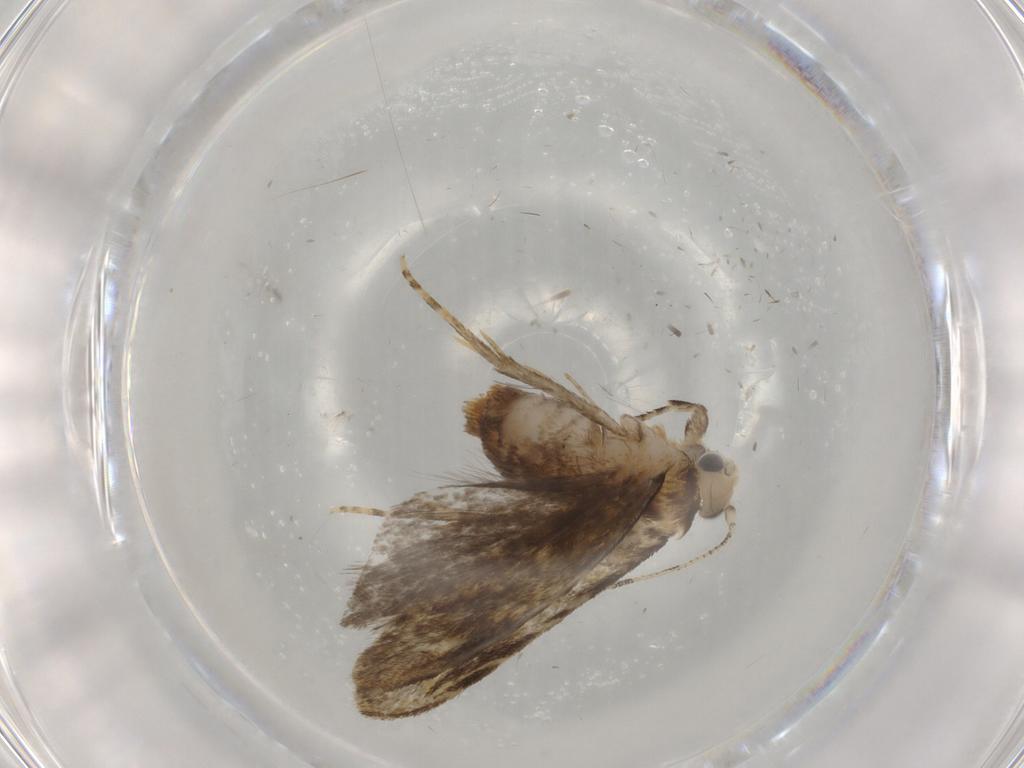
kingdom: Animalia
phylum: Arthropoda
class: Insecta
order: Lepidoptera
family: Tineidae
